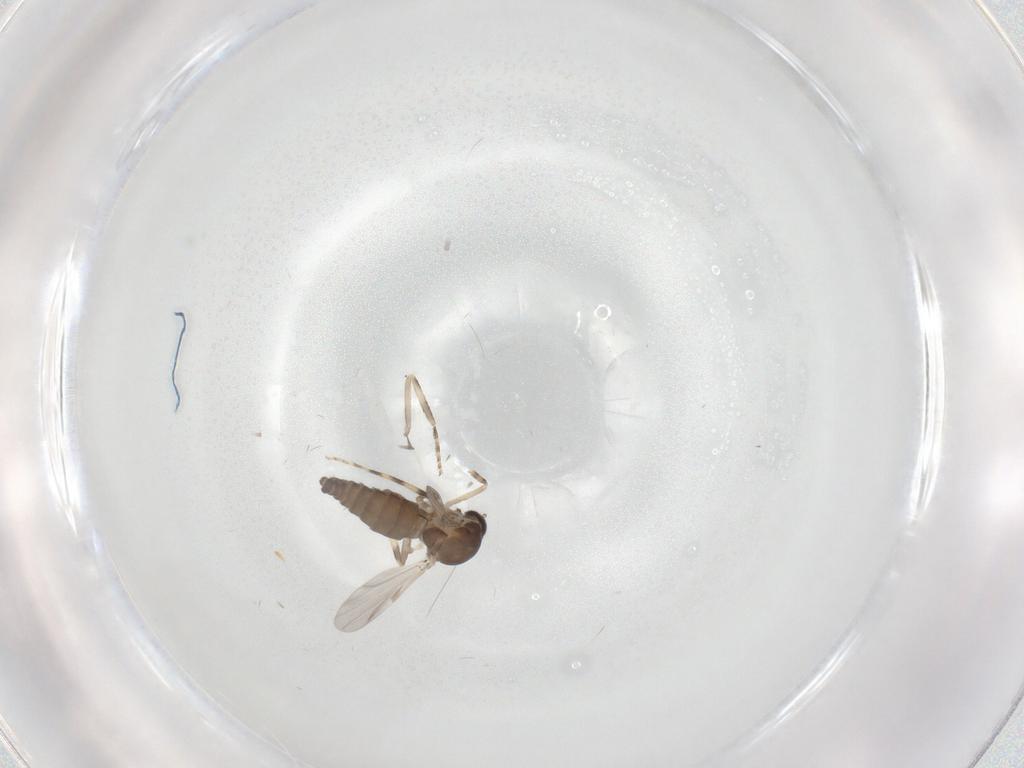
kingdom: Animalia
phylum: Arthropoda
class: Insecta
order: Diptera
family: Ceratopogonidae
